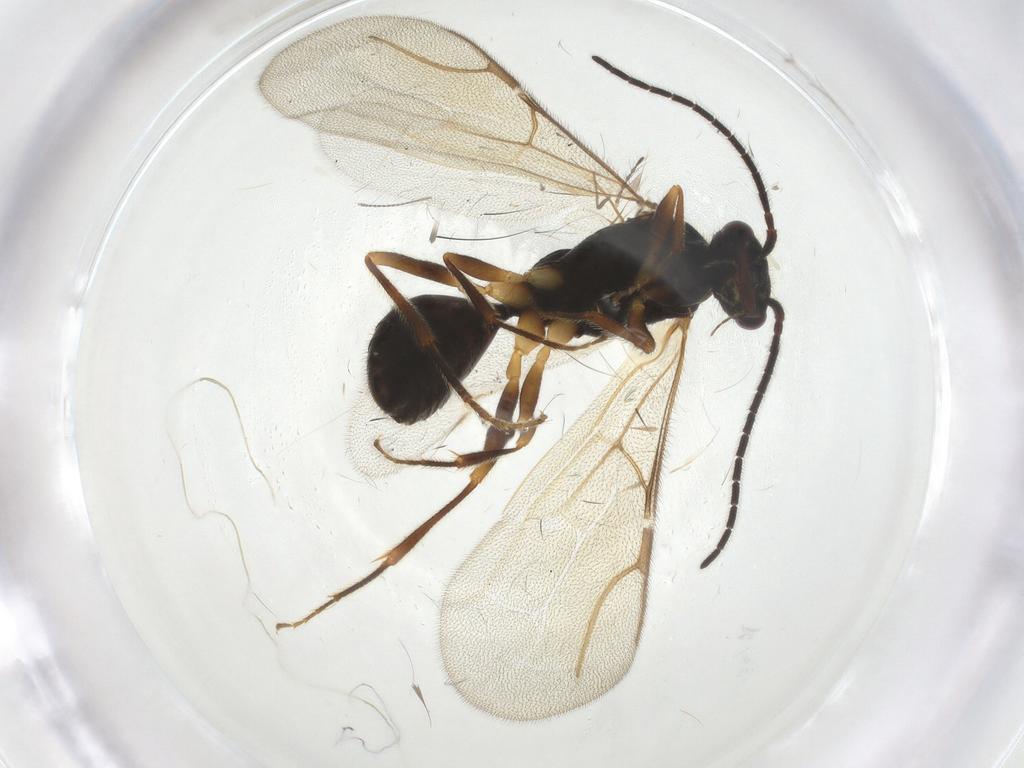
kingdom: Animalia
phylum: Arthropoda
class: Insecta
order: Hymenoptera
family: Bethylidae
